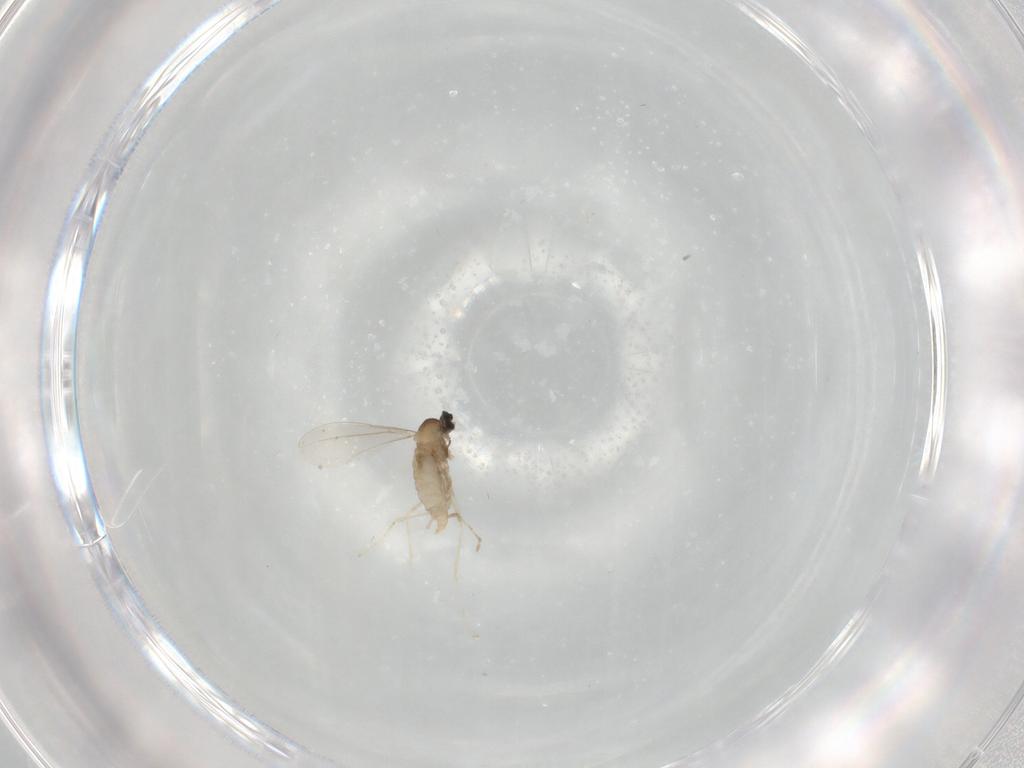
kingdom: Animalia
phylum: Arthropoda
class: Insecta
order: Diptera
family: Cecidomyiidae
